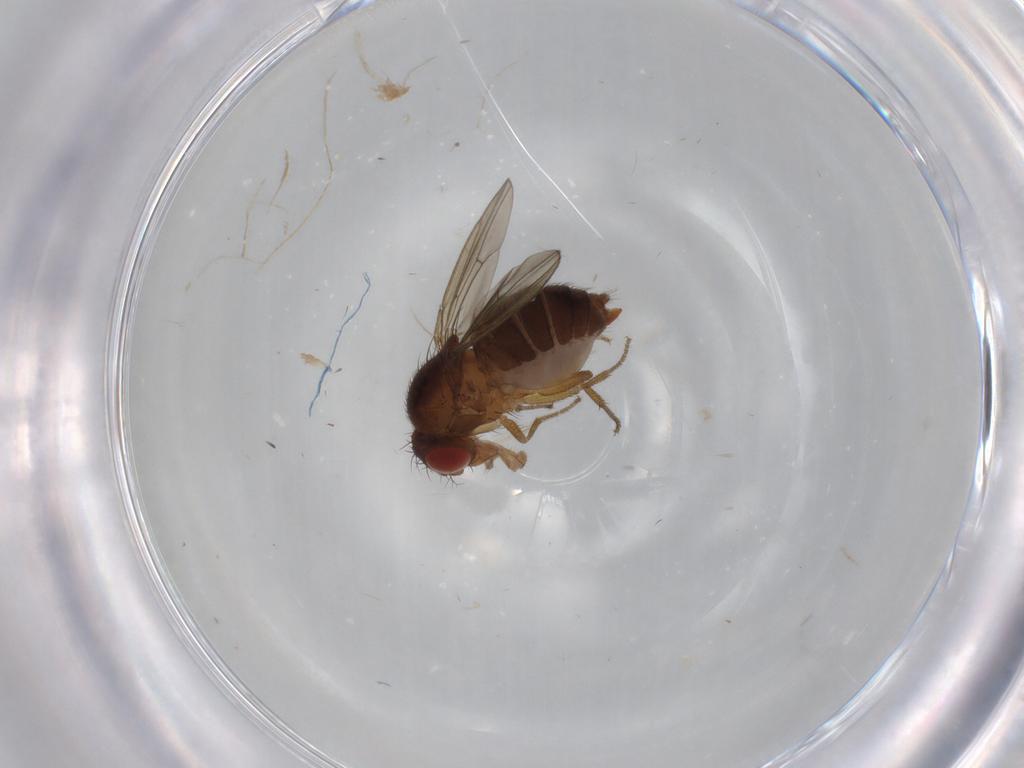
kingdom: Animalia
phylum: Arthropoda
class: Insecta
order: Diptera
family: Drosophilidae
